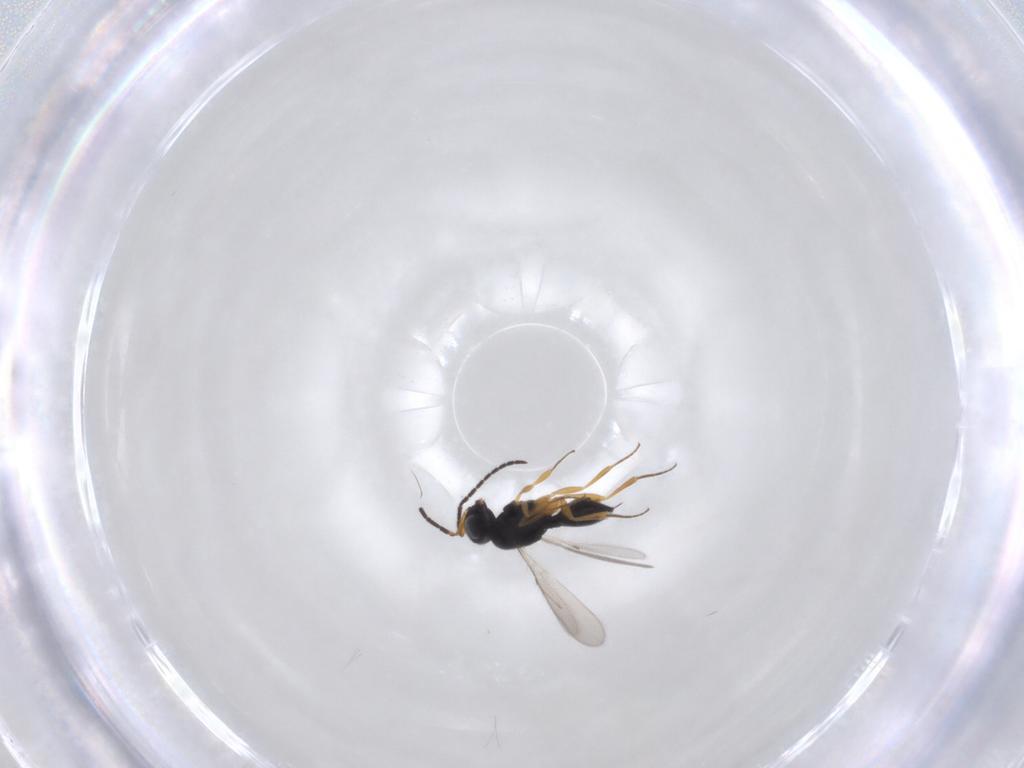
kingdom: Animalia
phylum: Arthropoda
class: Insecta
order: Hymenoptera
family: Scelionidae
